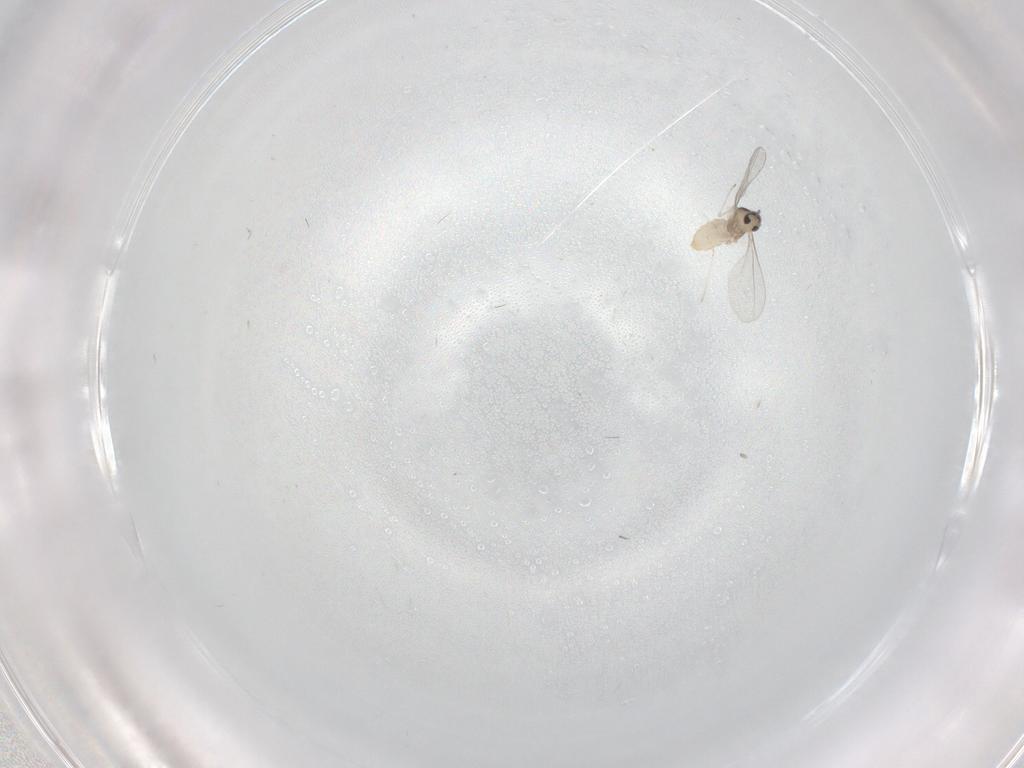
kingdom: Animalia
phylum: Arthropoda
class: Insecta
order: Diptera
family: Cecidomyiidae
